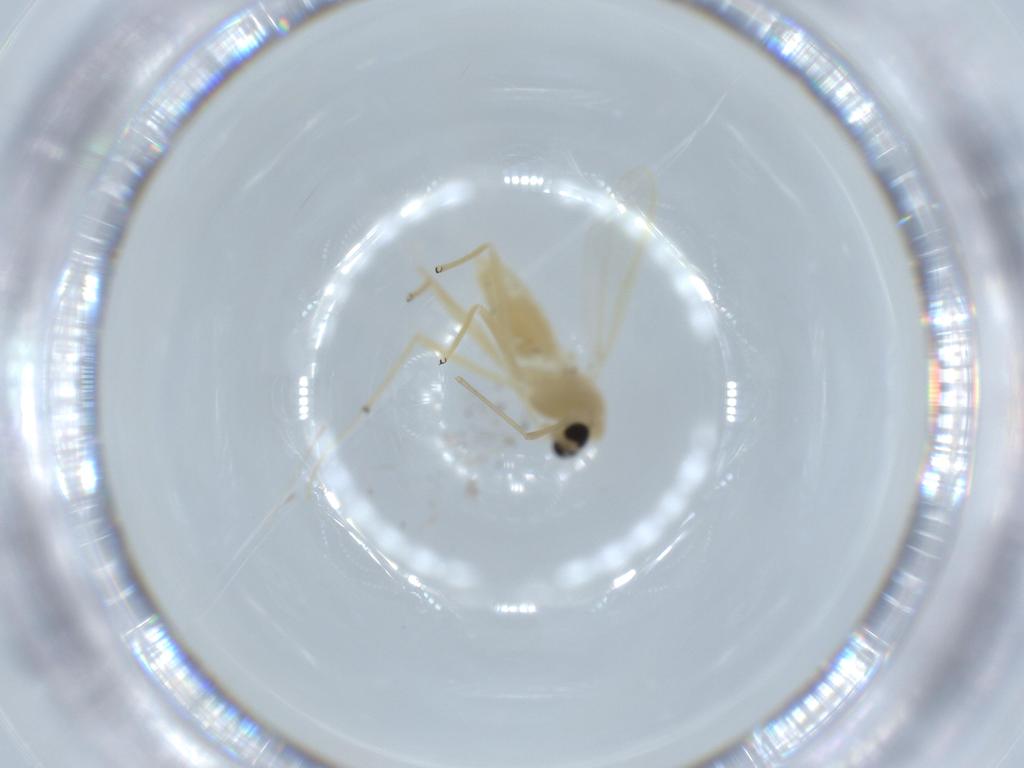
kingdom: Animalia
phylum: Arthropoda
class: Insecta
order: Diptera
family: Chironomidae
